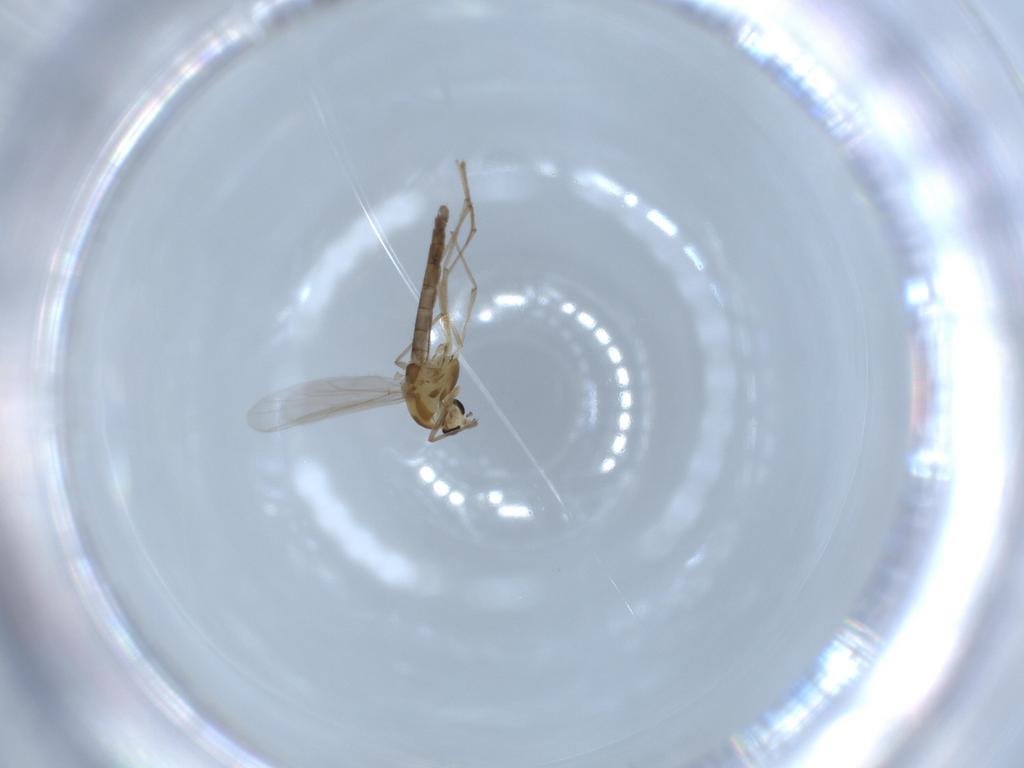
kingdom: Animalia
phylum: Arthropoda
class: Insecta
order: Diptera
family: Chironomidae
